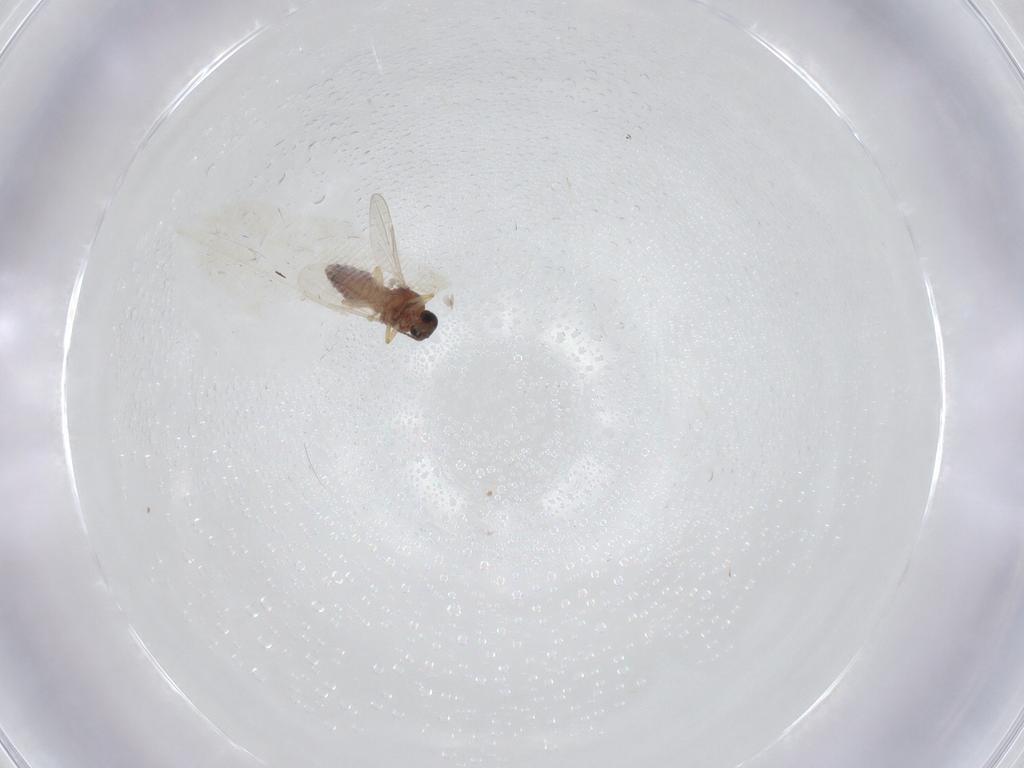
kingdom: Animalia
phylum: Arthropoda
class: Insecta
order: Diptera
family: Ceratopogonidae
